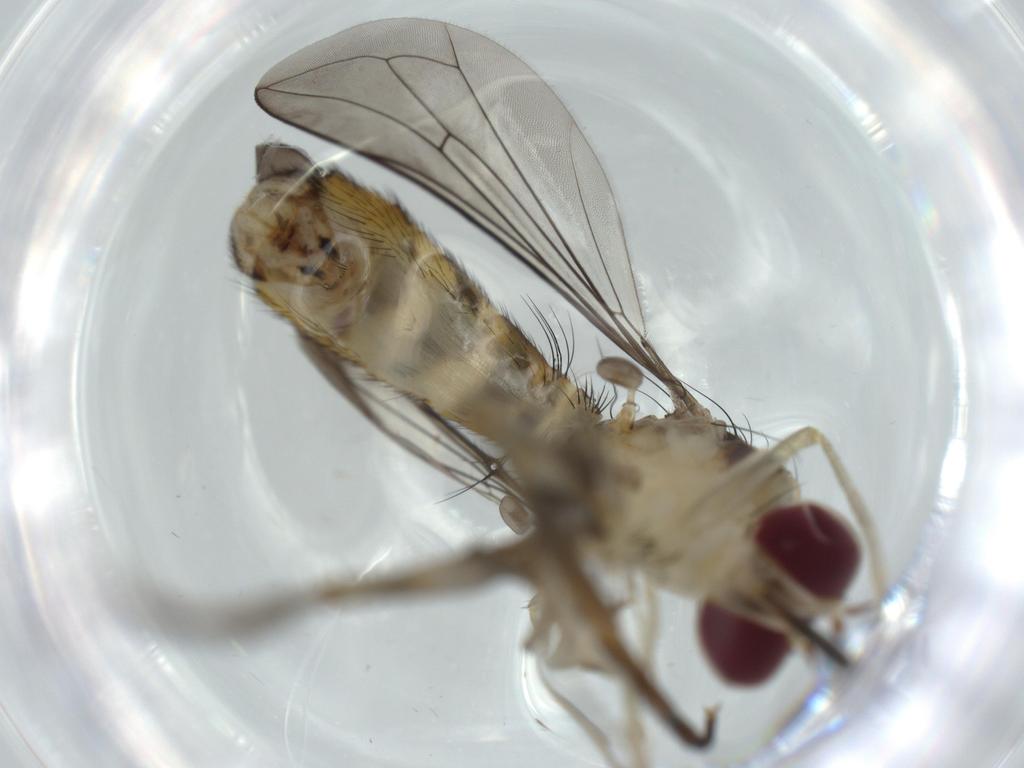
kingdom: Animalia
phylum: Arthropoda
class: Insecta
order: Diptera
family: Conopidae
